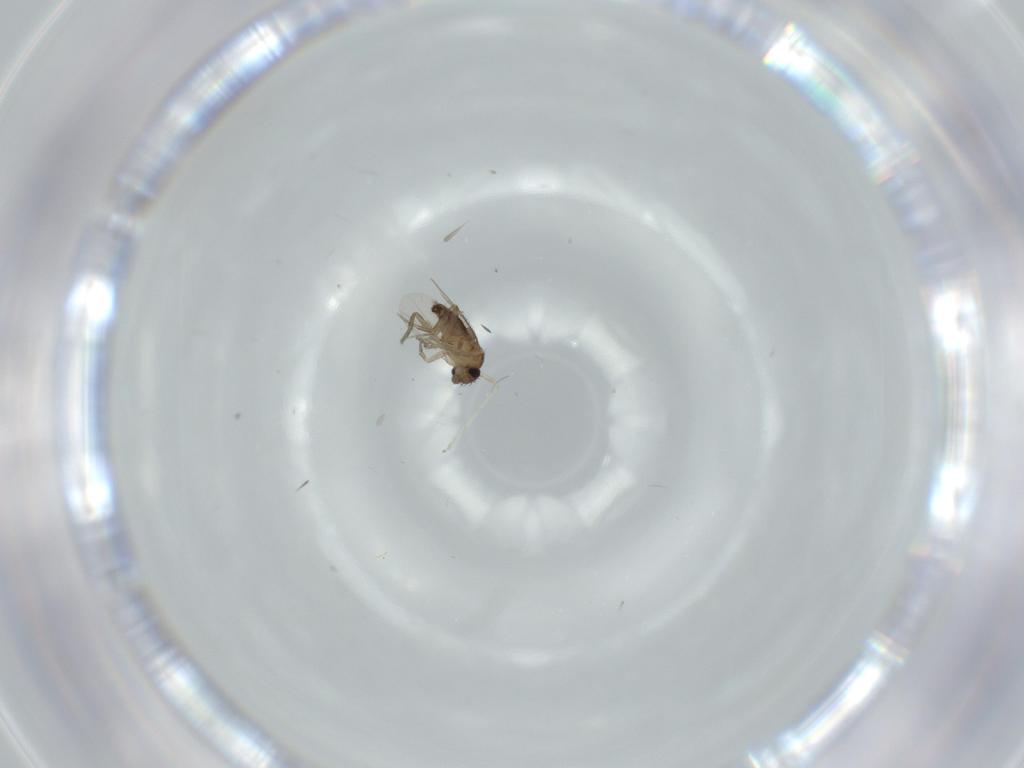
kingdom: Animalia
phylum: Arthropoda
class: Insecta
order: Diptera
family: Phoridae
